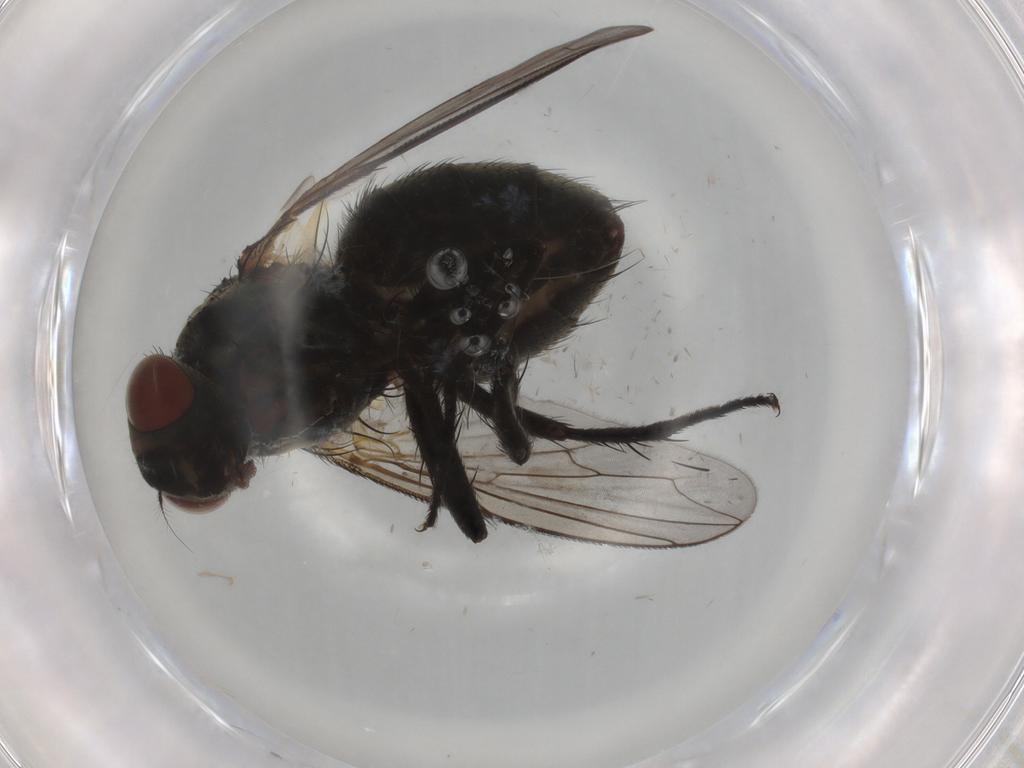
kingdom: Animalia
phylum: Arthropoda
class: Insecta
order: Diptera
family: Sarcophagidae
